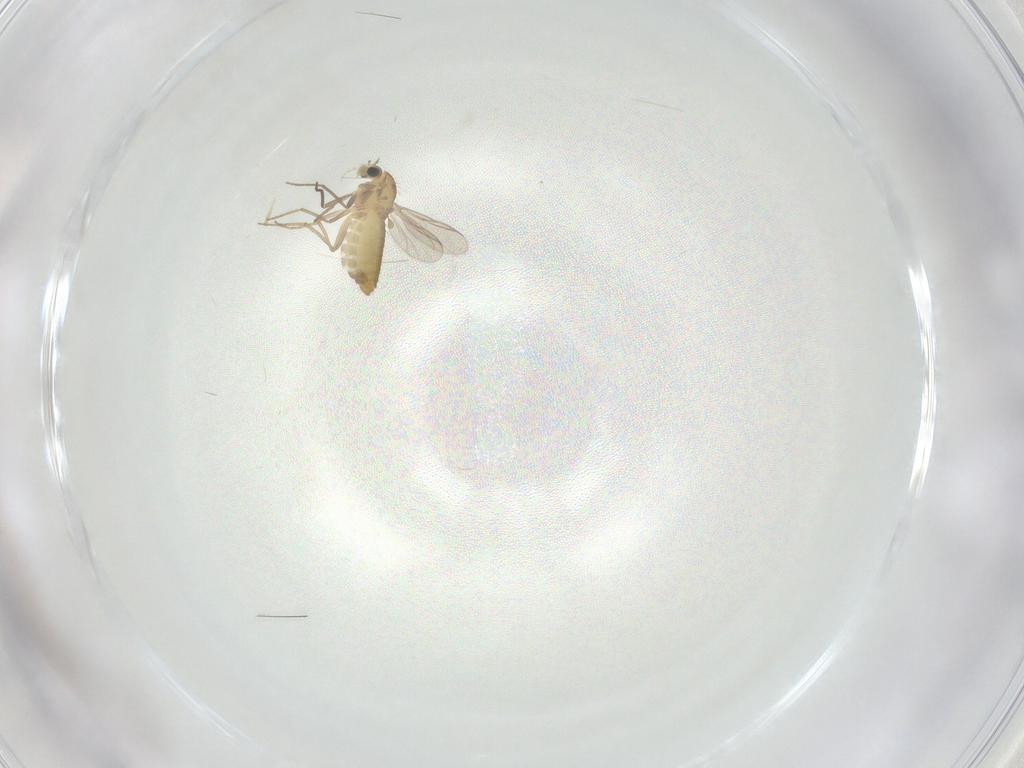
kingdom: Animalia
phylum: Arthropoda
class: Insecta
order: Diptera
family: Chironomidae
